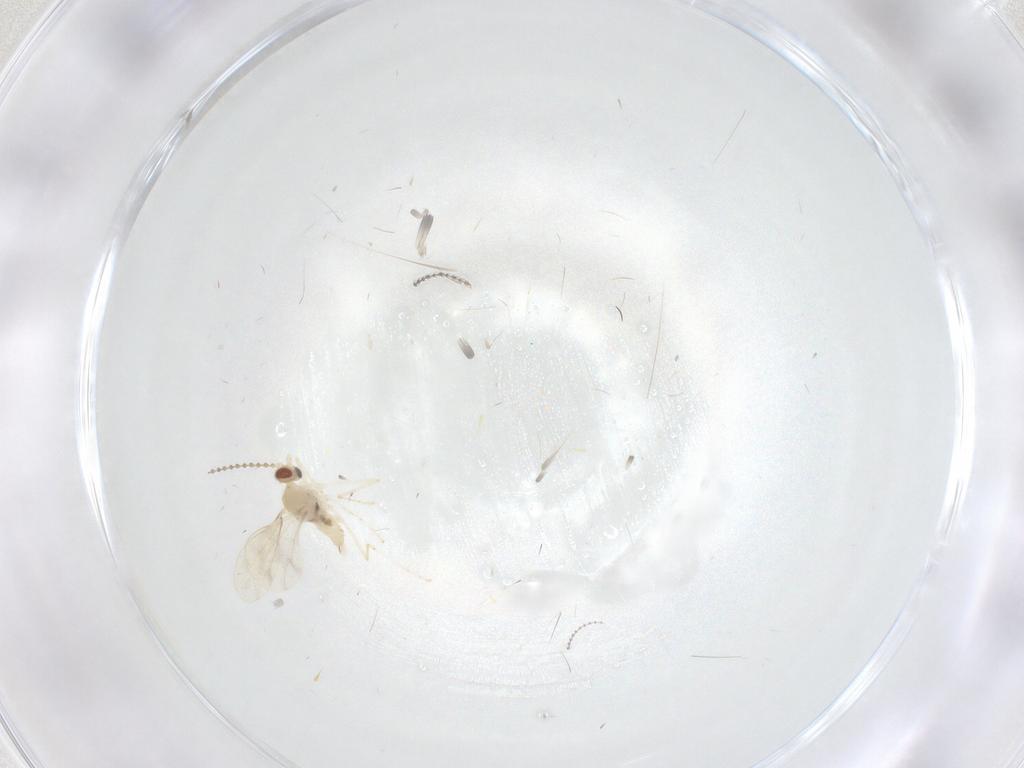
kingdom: Animalia
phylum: Arthropoda
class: Insecta
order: Diptera
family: Cecidomyiidae
